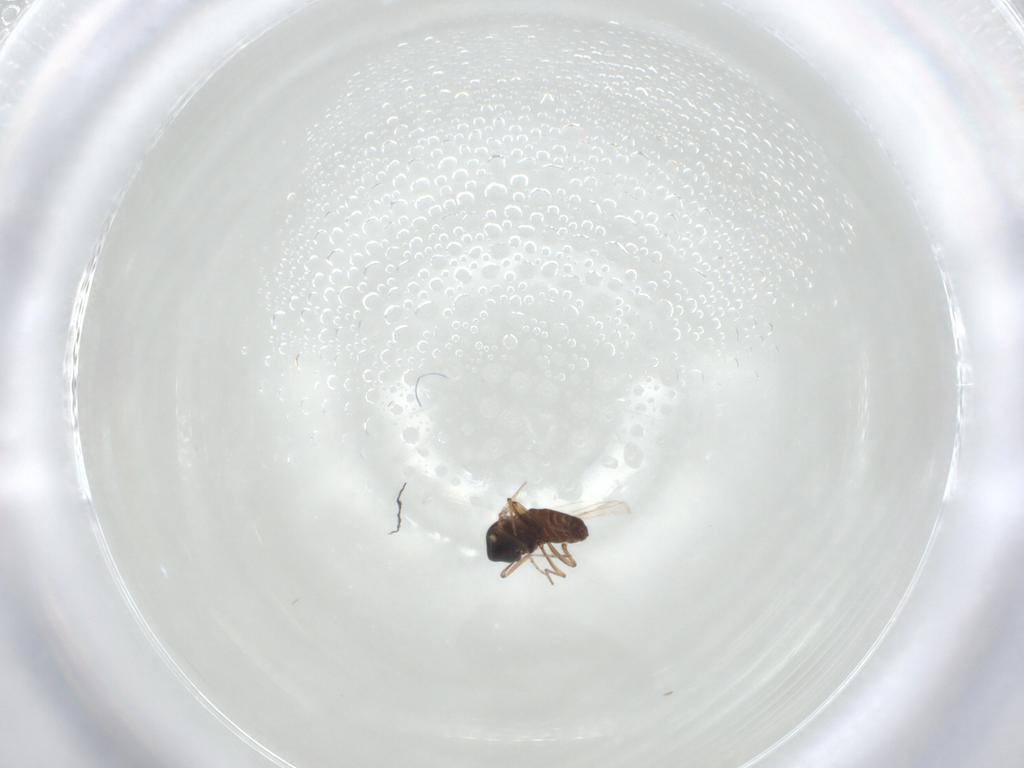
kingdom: Animalia
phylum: Arthropoda
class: Insecta
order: Diptera
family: Ceratopogonidae
